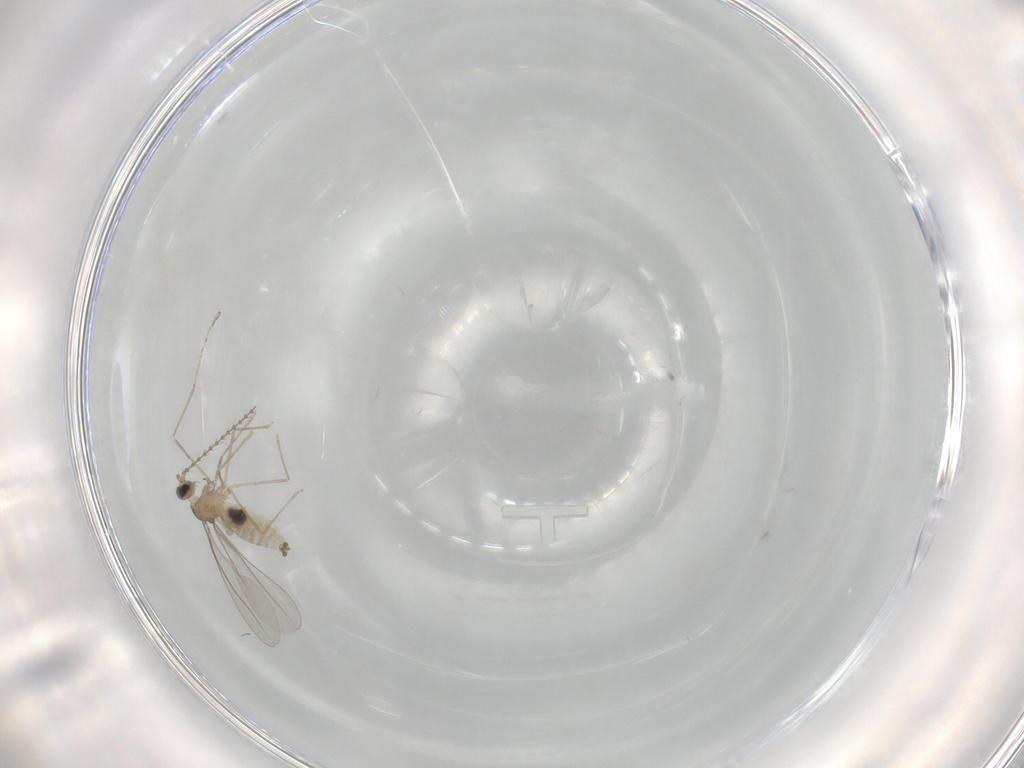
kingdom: Animalia
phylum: Arthropoda
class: Insecta
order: Diptera
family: Cecidomyiidae
